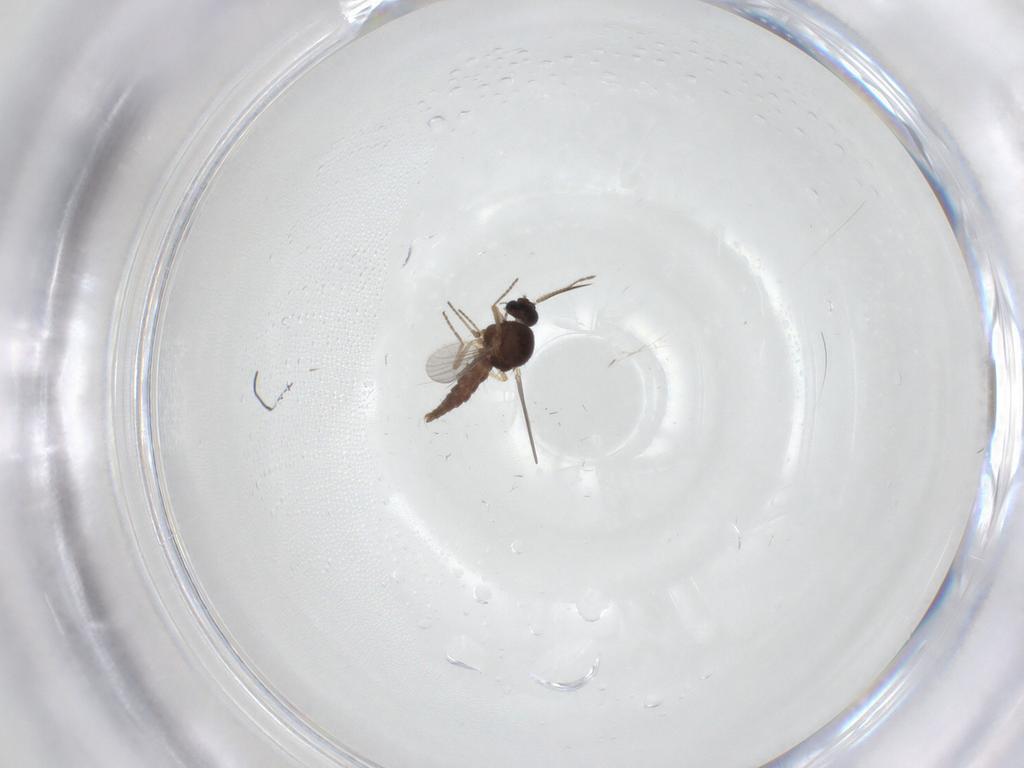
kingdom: Animalia
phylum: Arthropoda
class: Insecta
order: Diptera
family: Ceratopogonidae
